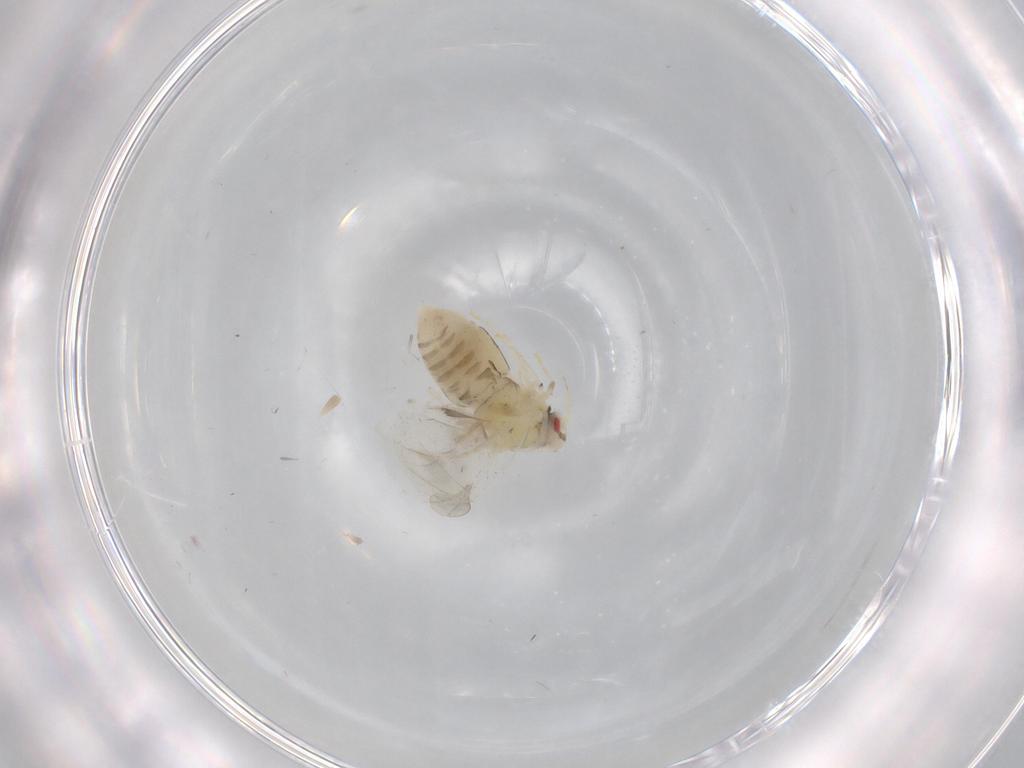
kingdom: Animalia
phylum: Arthropoda
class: Insecta
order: Hemiptera
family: Aleyrodidae
